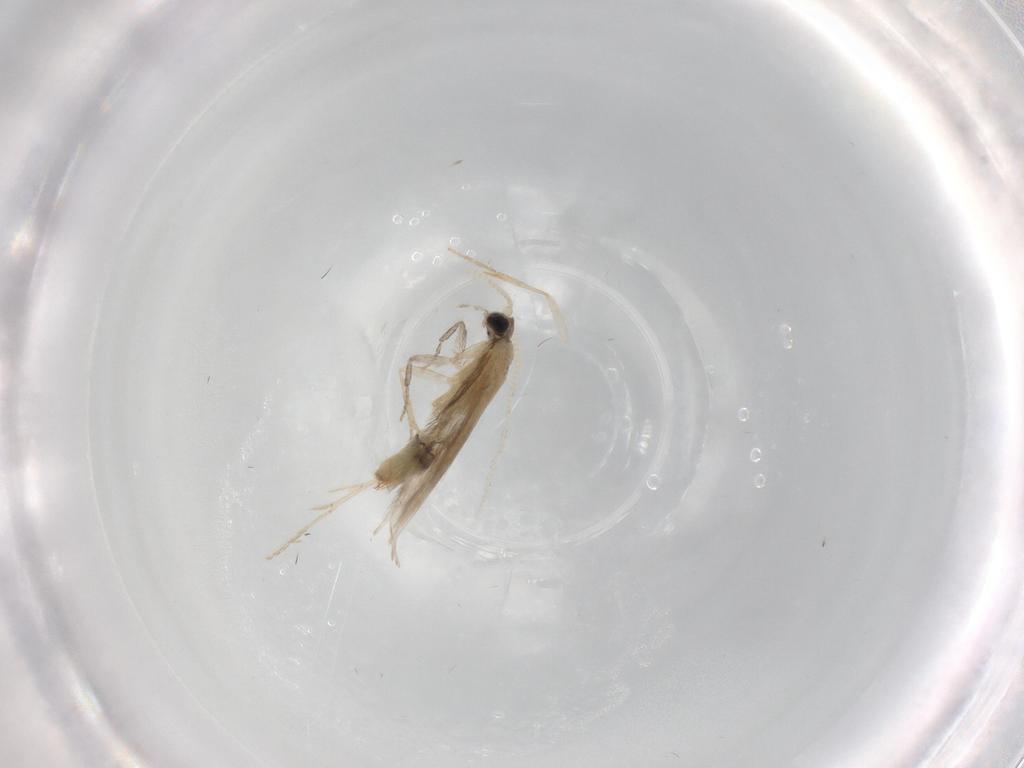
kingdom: Animalia
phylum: Arthropoda
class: Insecta
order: Trichoptera
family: Hydroptilidae
